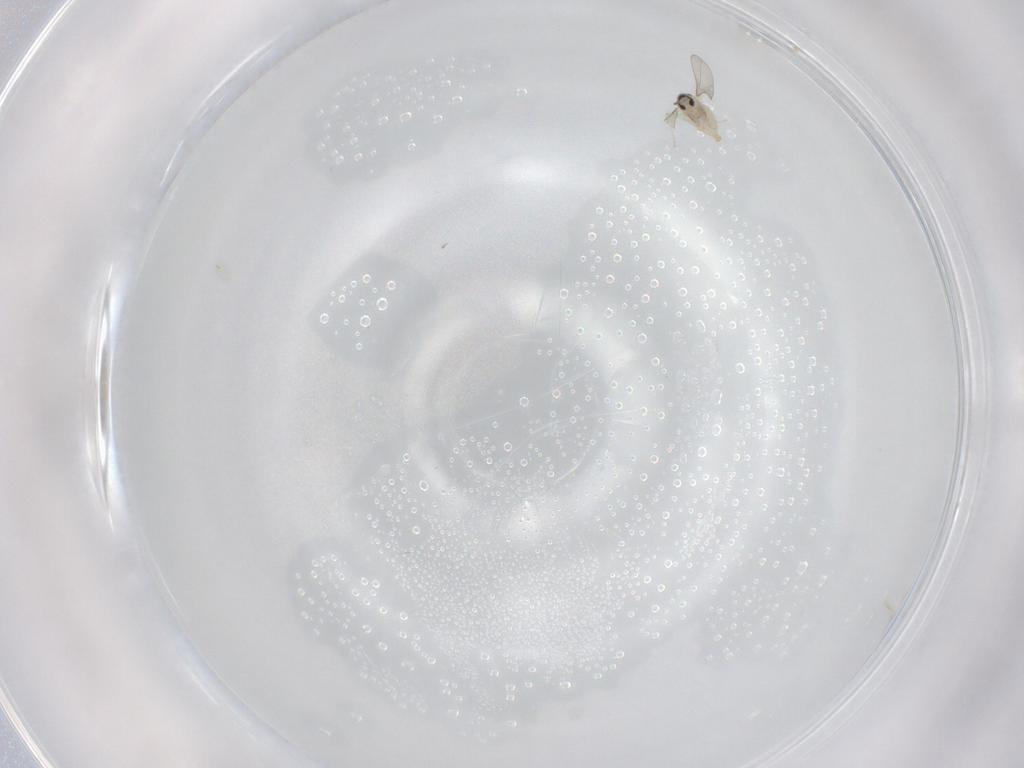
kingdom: Animalia
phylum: Arthropoda
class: Insecta
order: Diptera
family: Cecidomyiidae
